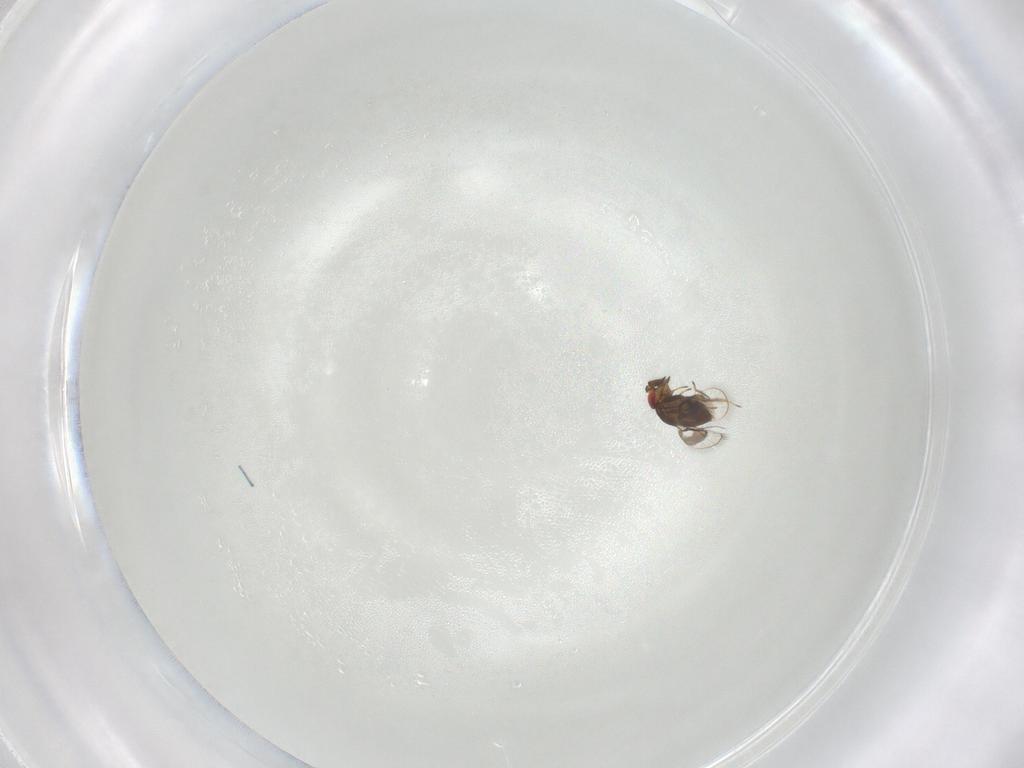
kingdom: Animalia
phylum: Arthropoda
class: Insecta
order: Hymenoptera
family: Trichogrammatidae
